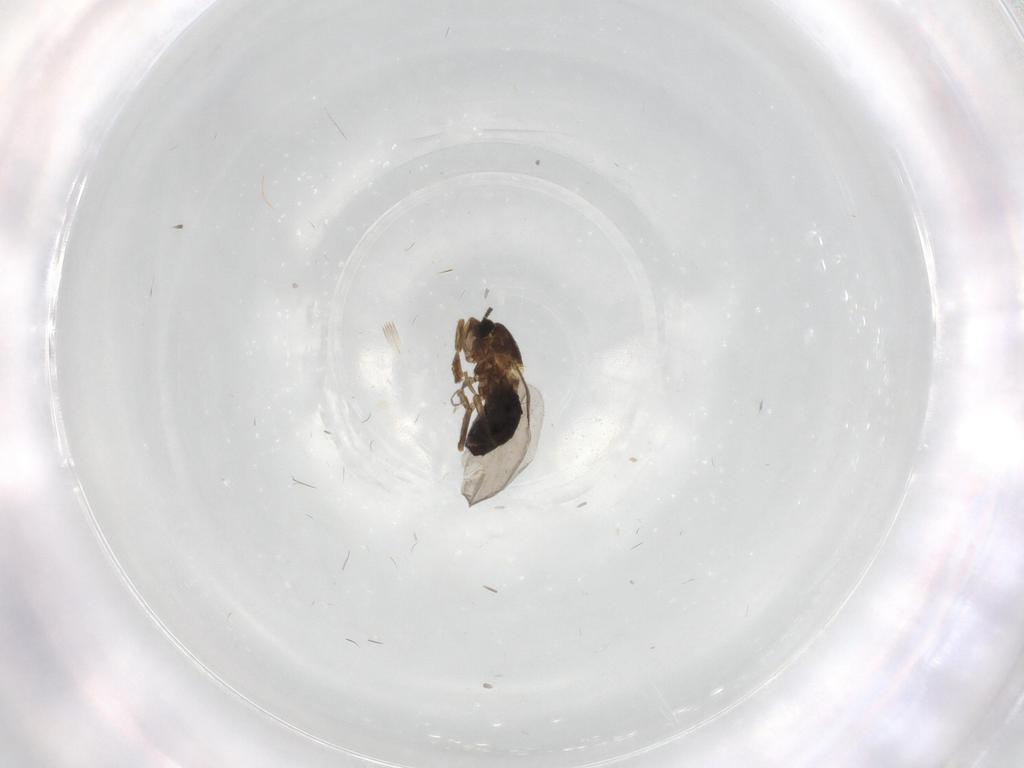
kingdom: Animalia
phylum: Arthropoda
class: Insecta
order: Diptera
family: Scatopsidae
